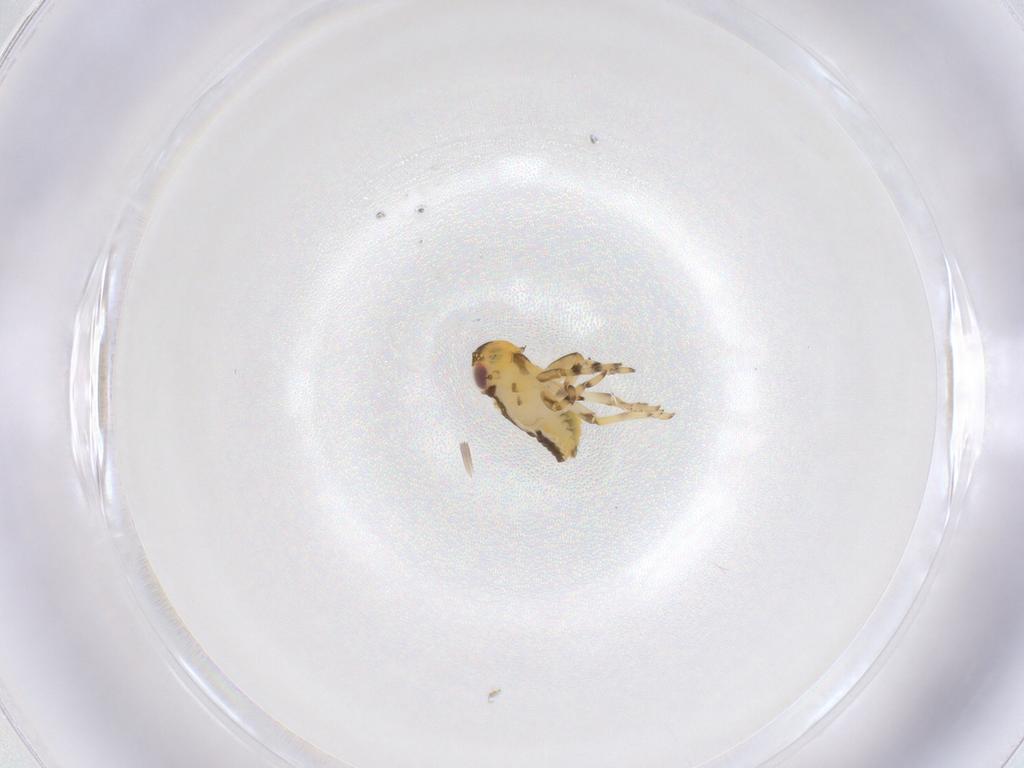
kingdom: Animalia
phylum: Arthropoda
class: Insecta
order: Hemiptera
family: Issidae
